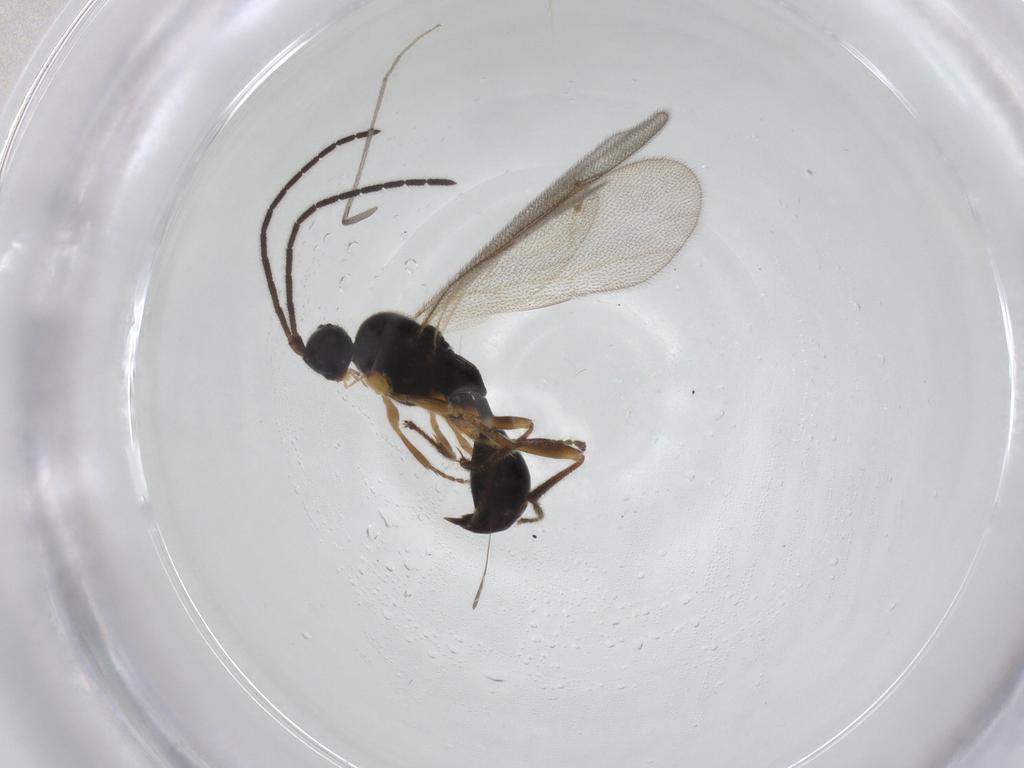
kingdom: Animalia
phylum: Arthropoda
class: Insecta
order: Hymenoptera
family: Proctotrupidae
